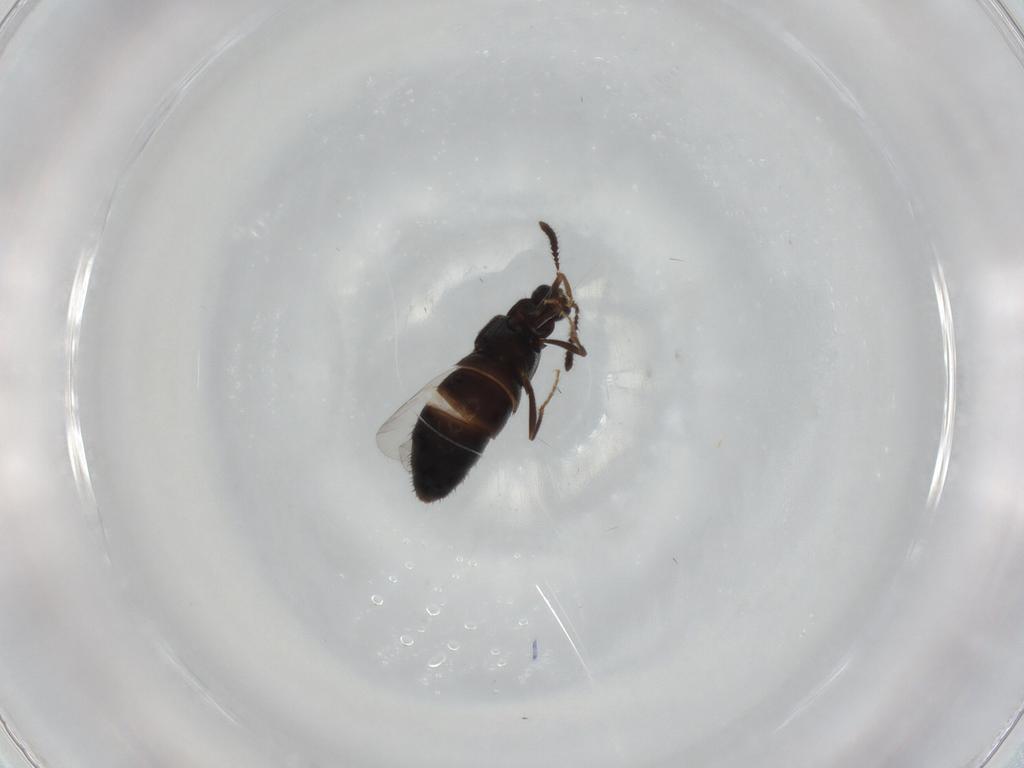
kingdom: Animalia
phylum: Arthropoda
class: Insecta
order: Coleoptera
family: Staphylinidae
